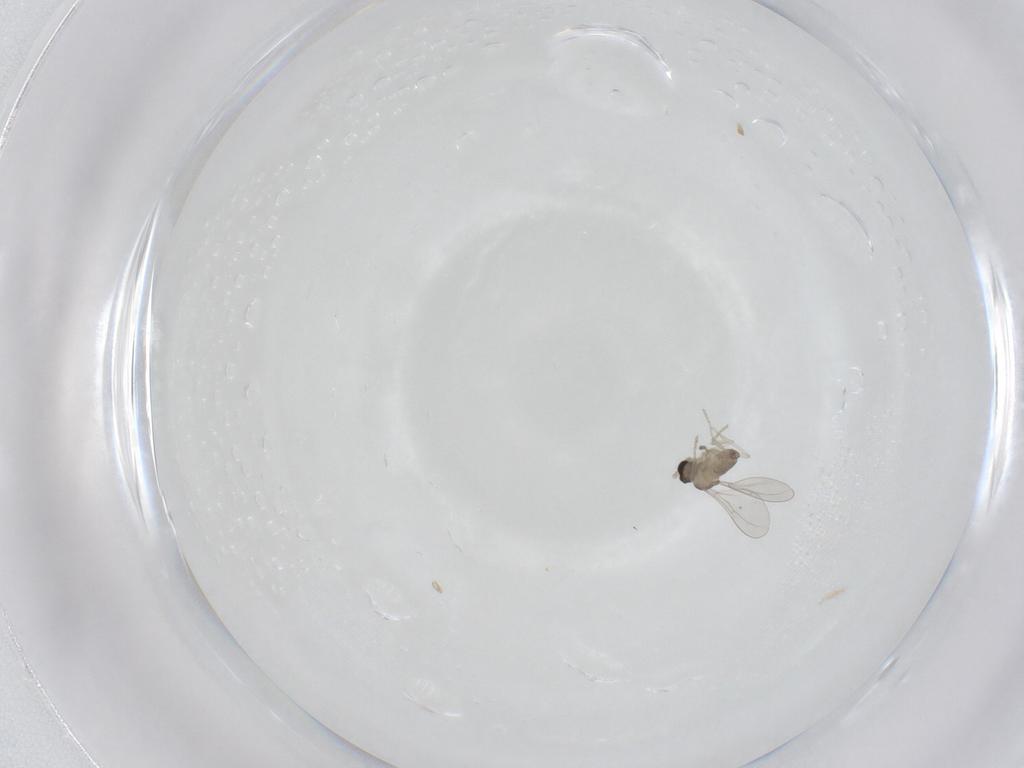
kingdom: Animalia
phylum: Arthropoda
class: Insecta
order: Diptera
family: Cecidomyiidae
